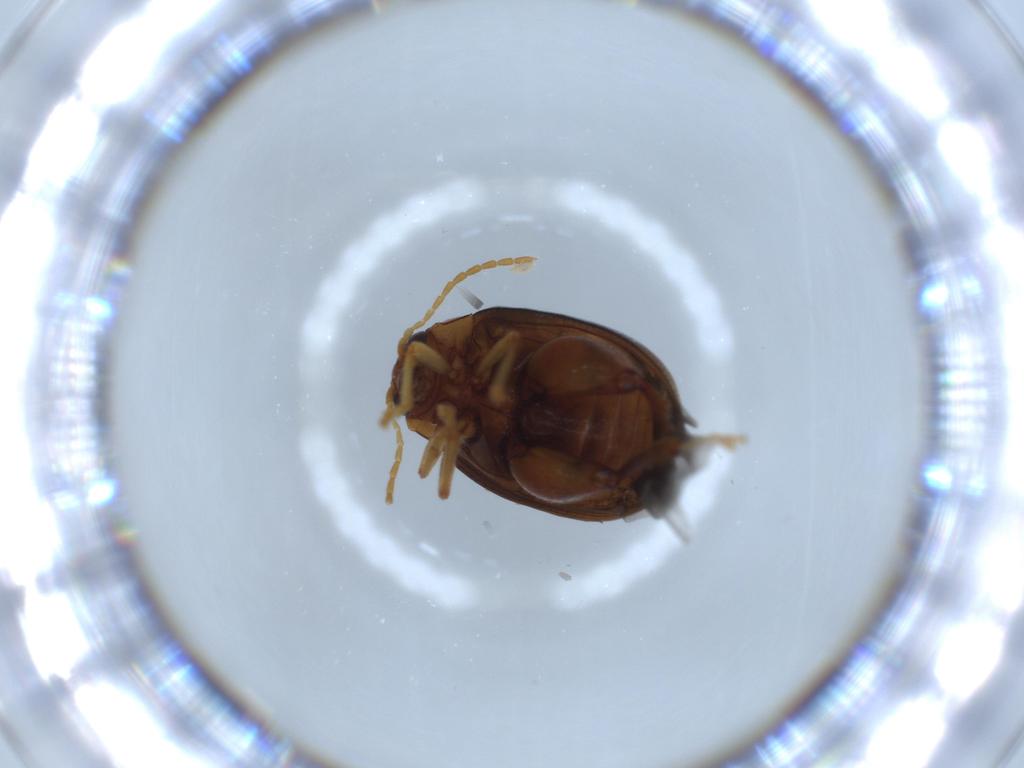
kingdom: Animalia
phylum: Arthropoda
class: Insecta
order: Coleoptera
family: Chrysomelidae
